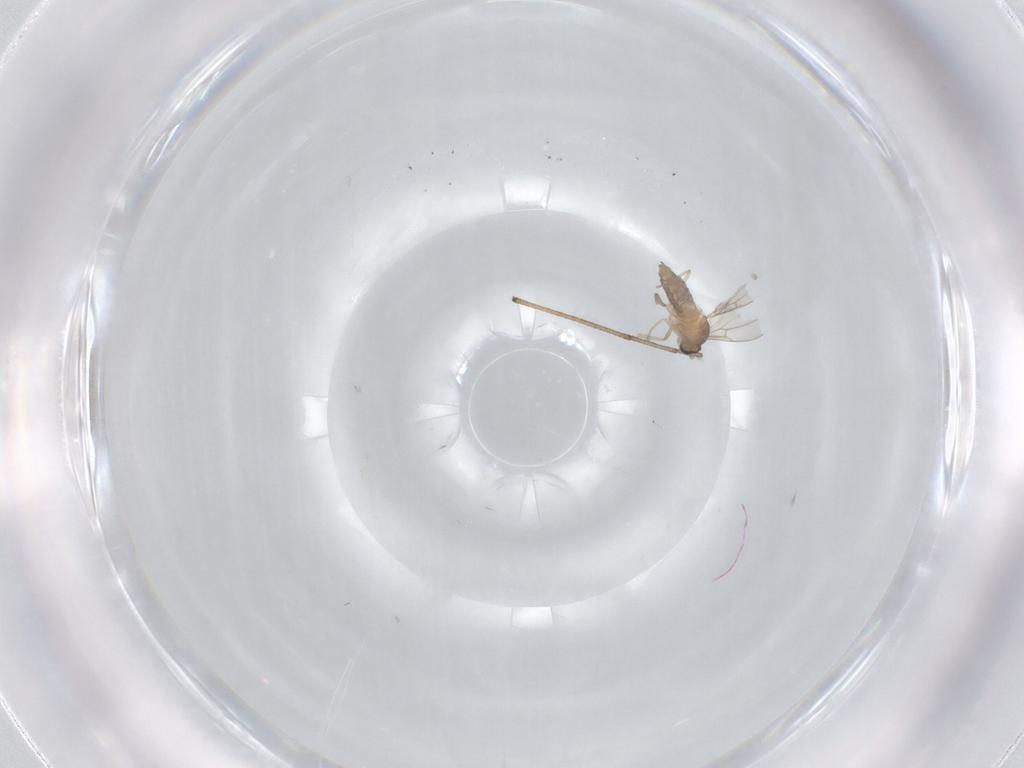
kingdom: Animalia
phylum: Arthropoda
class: Insecta
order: Diptera
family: Cecidomyiidae
